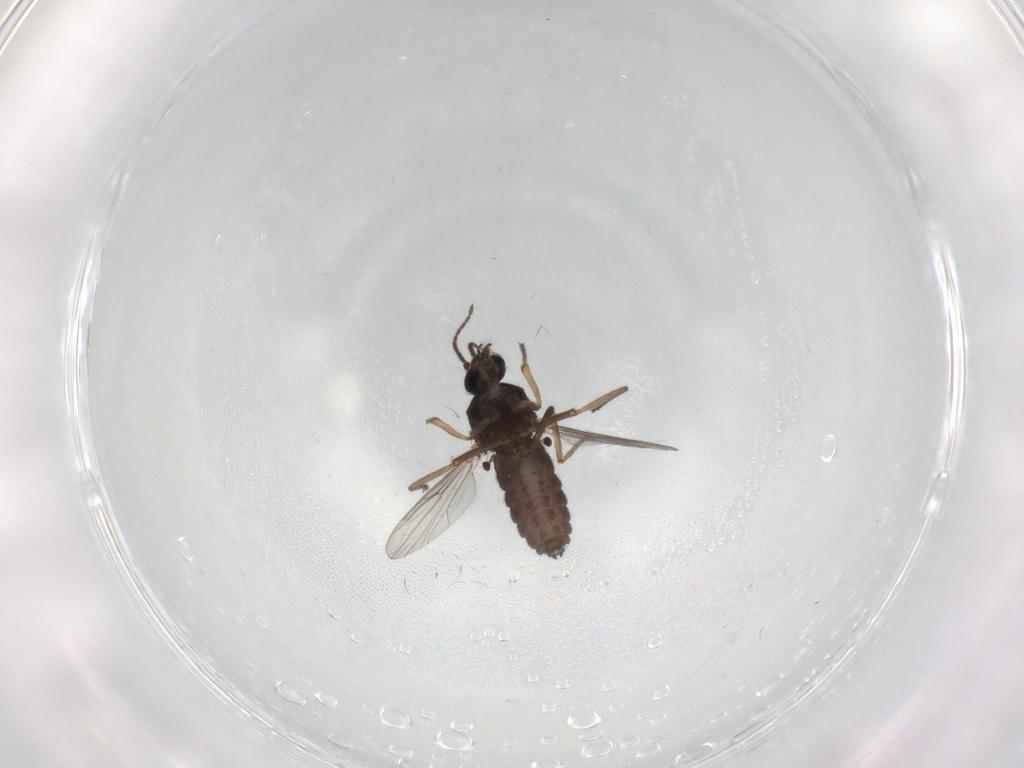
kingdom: Animalia
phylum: Arthropoda
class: Insecta
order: Diptera
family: Ceratopogonidae
